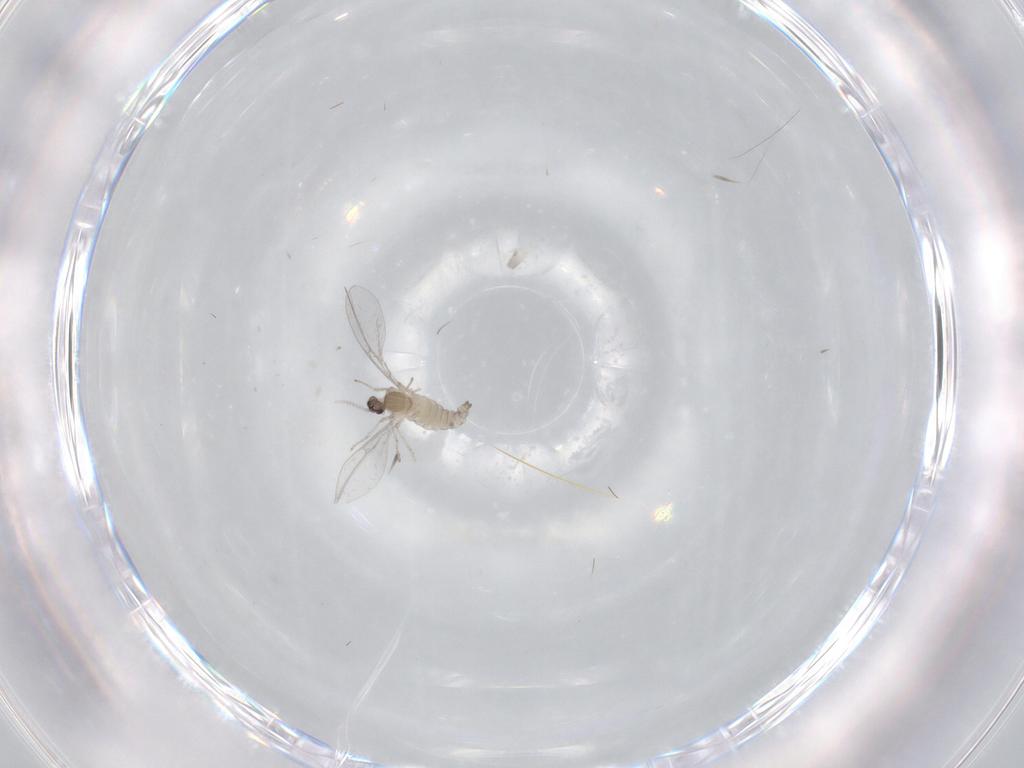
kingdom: Animalia
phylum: Arthropoda
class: Insecta
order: Diptera
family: Cecidomyiidae
